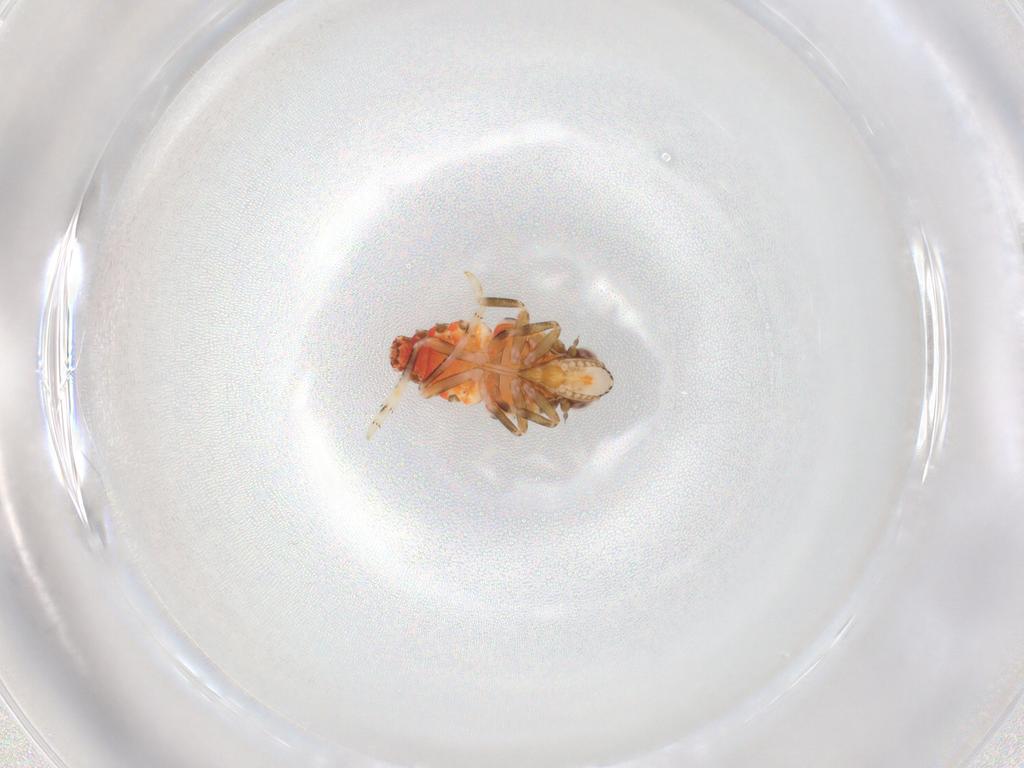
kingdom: Animalia
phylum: Arthropoda
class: Insecta
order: Hemiptera
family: Tropiduchidae
